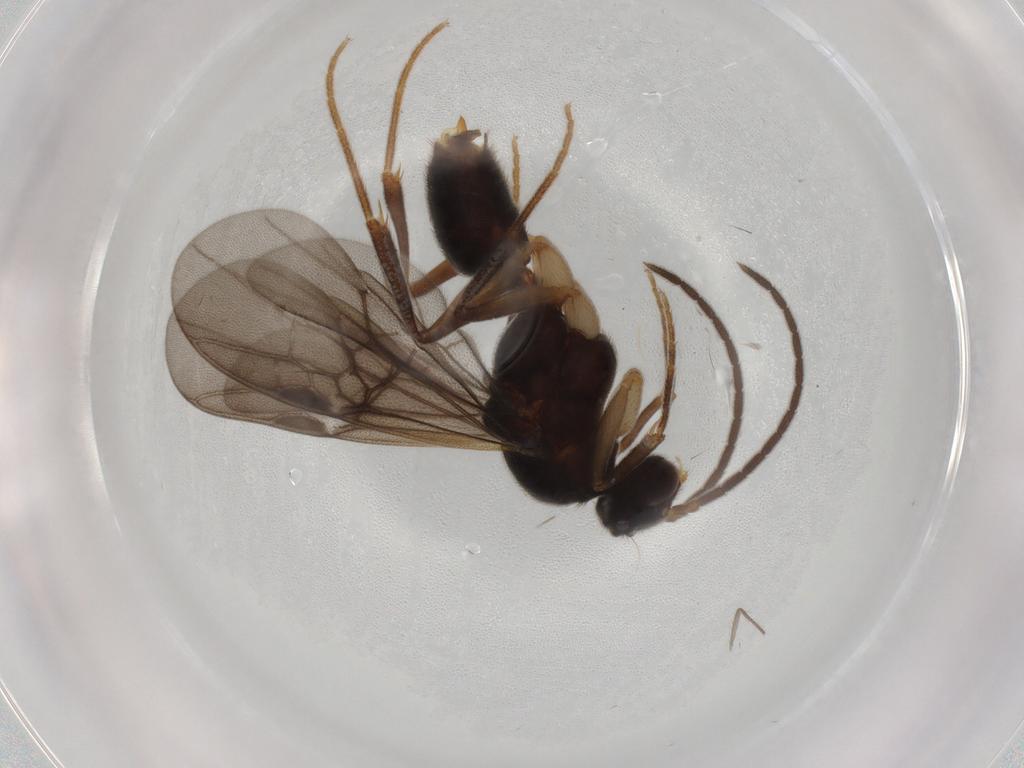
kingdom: Animalia
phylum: Arthropoda
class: Insecta
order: Hymenoptera
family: Formicidae
